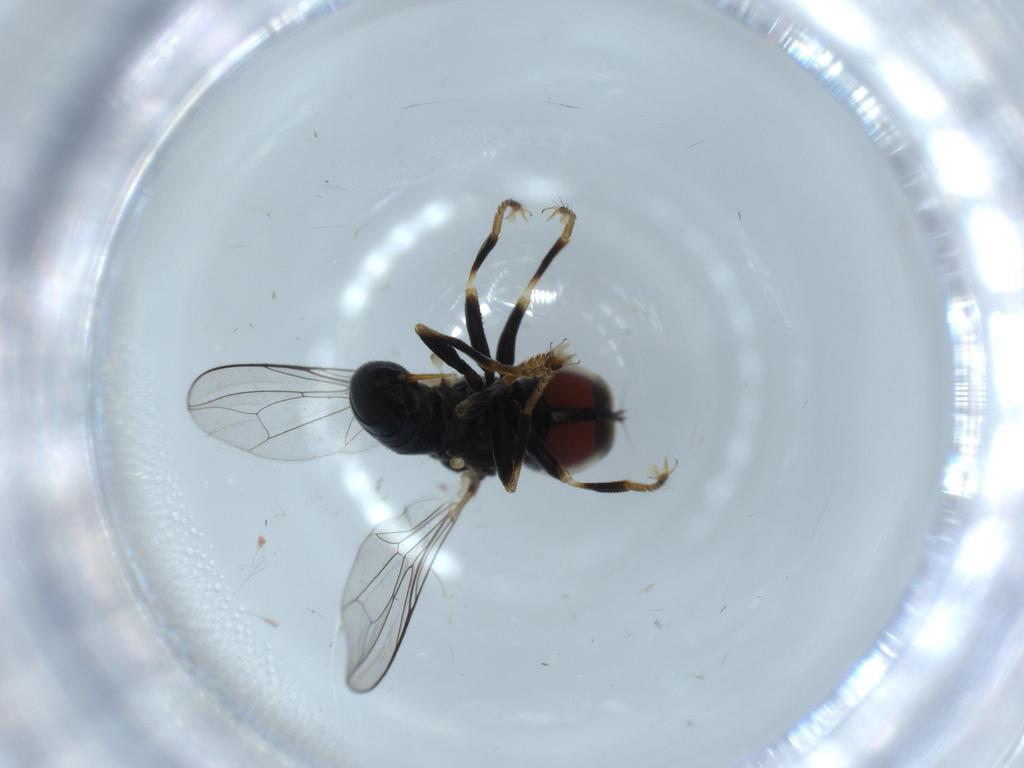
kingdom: Animalia
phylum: Arthropoda
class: Insecta
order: Diptera
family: Pipunculidae
